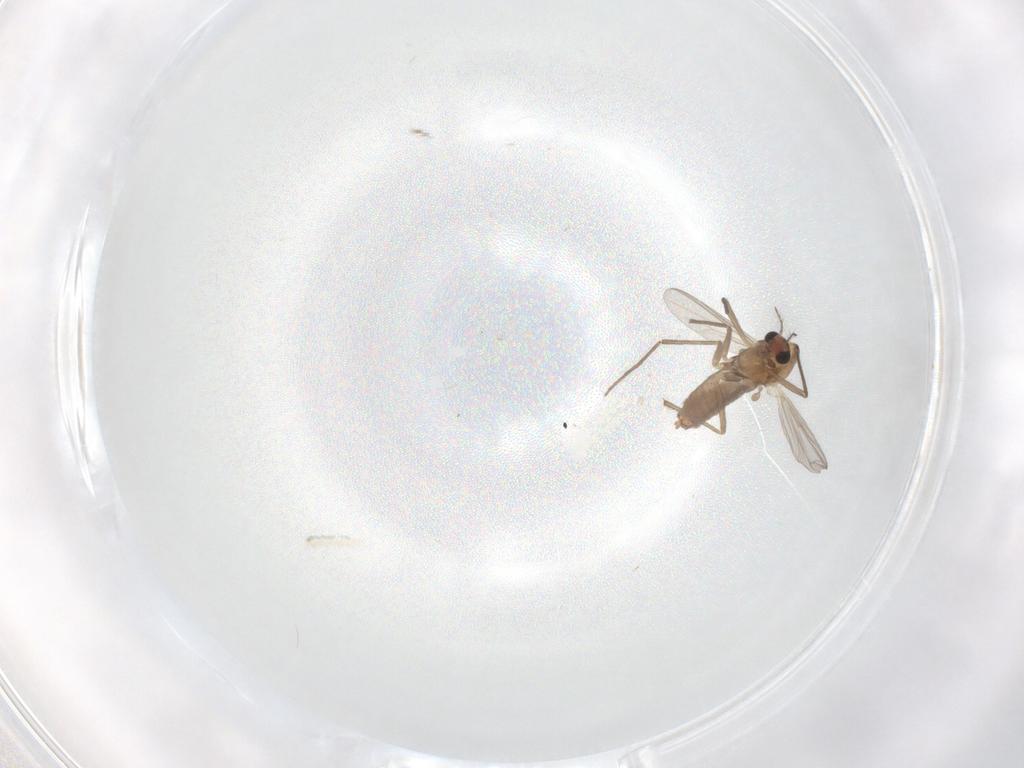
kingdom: Animalia
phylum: Arthropoda
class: Insecta
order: Diptera
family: Chironomidae
